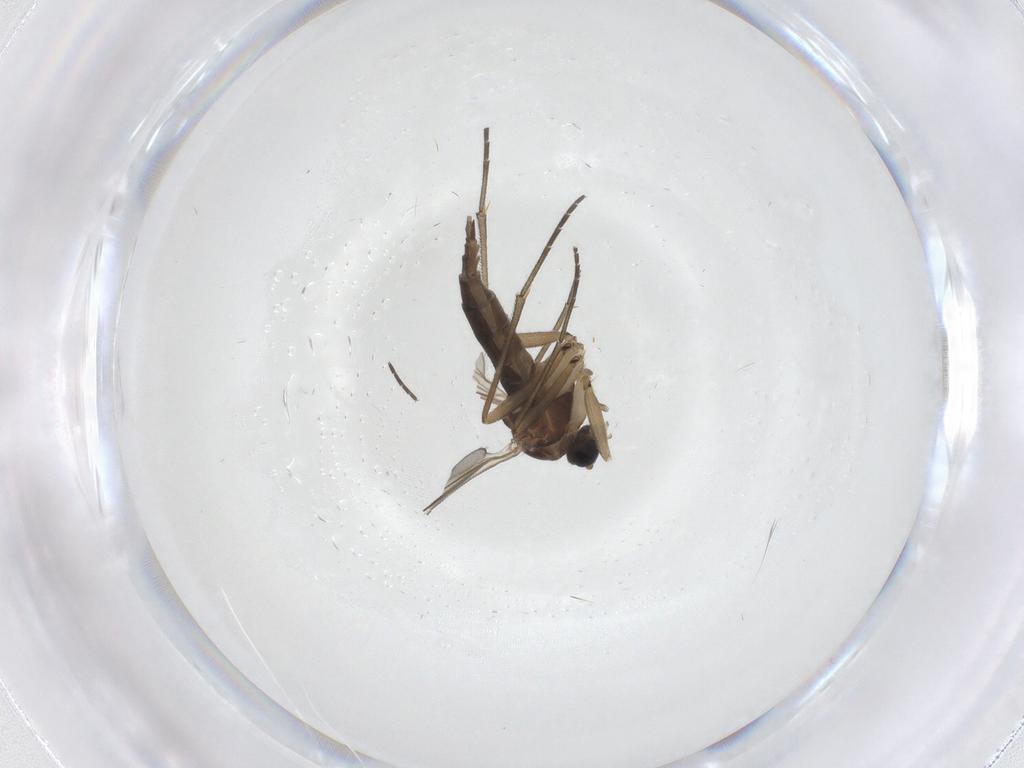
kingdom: Animalia
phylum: Arthropoda
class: Insecta
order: Diptera
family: Sciaridae
